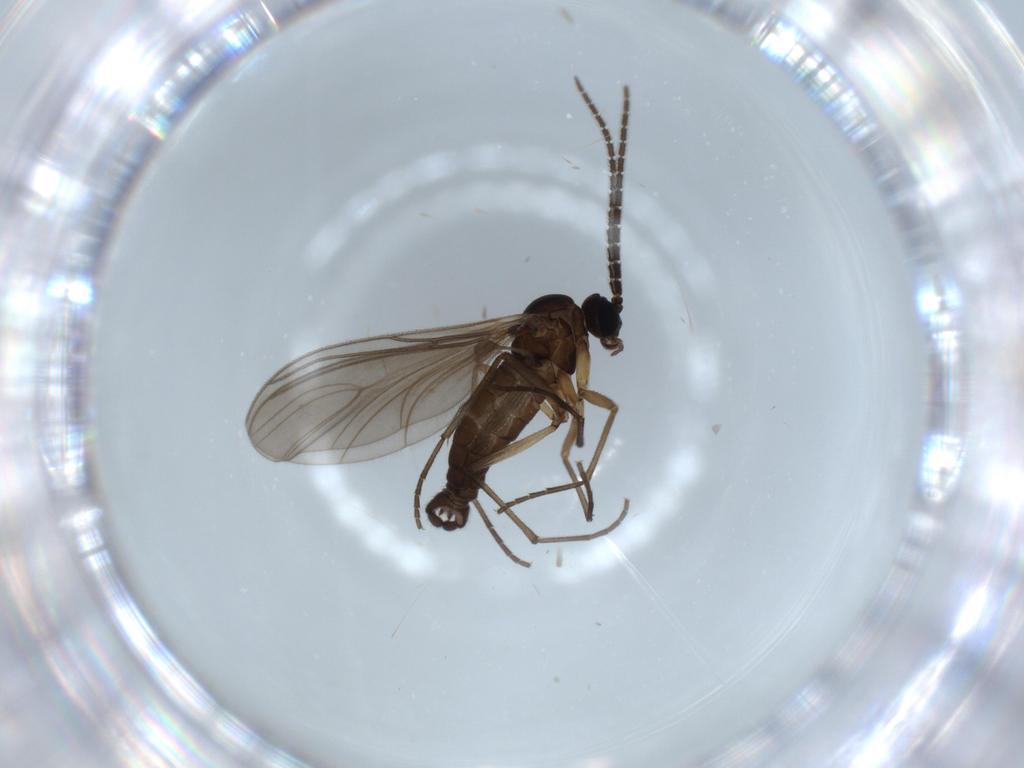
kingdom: Animalia
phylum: Arthropoda
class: Insecta
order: Diptera
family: Sciaridae
